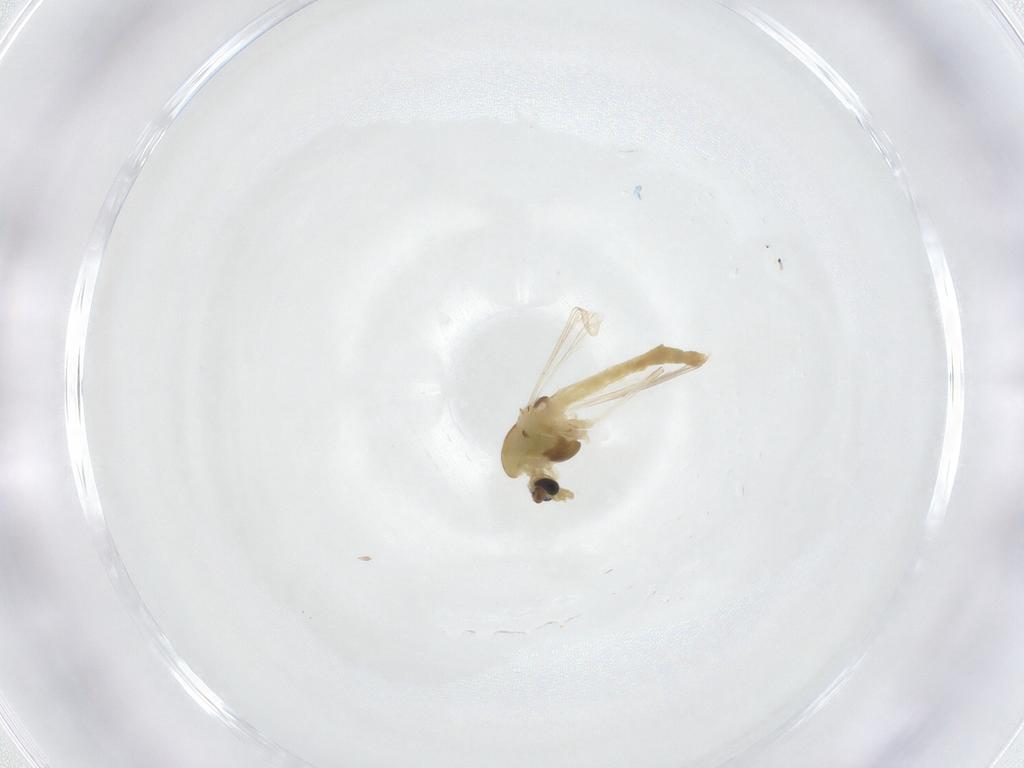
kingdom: Animalia
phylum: Arthropoda
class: Insecta
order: Diptera
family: Chironomidae
